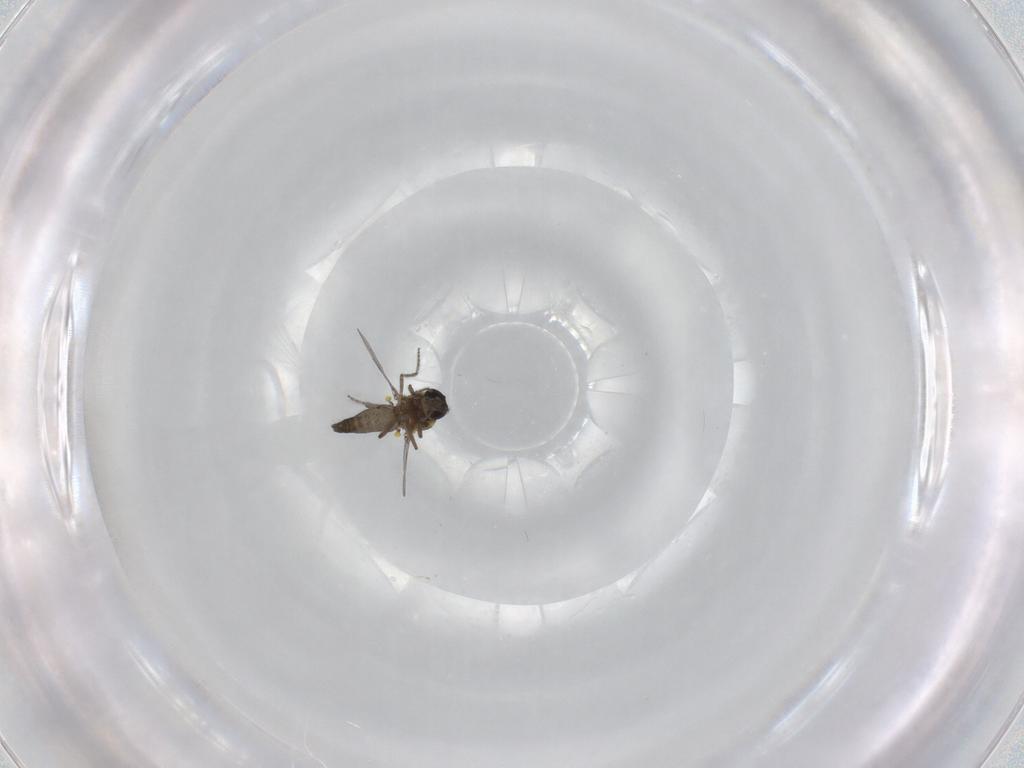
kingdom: Animalia
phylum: Arthropoda
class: Insecta
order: Diptera
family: Ceratopogonidae
